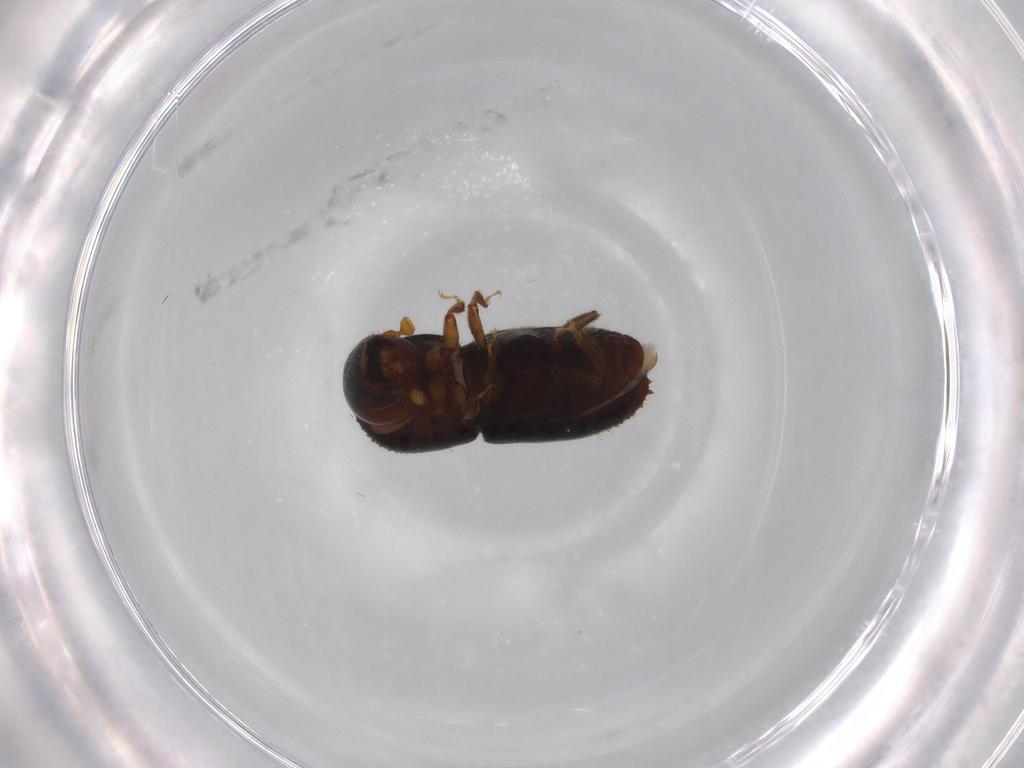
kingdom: Animalia
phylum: Arthropoda
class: Insecta
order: Coleoptera
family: Curculionidae
